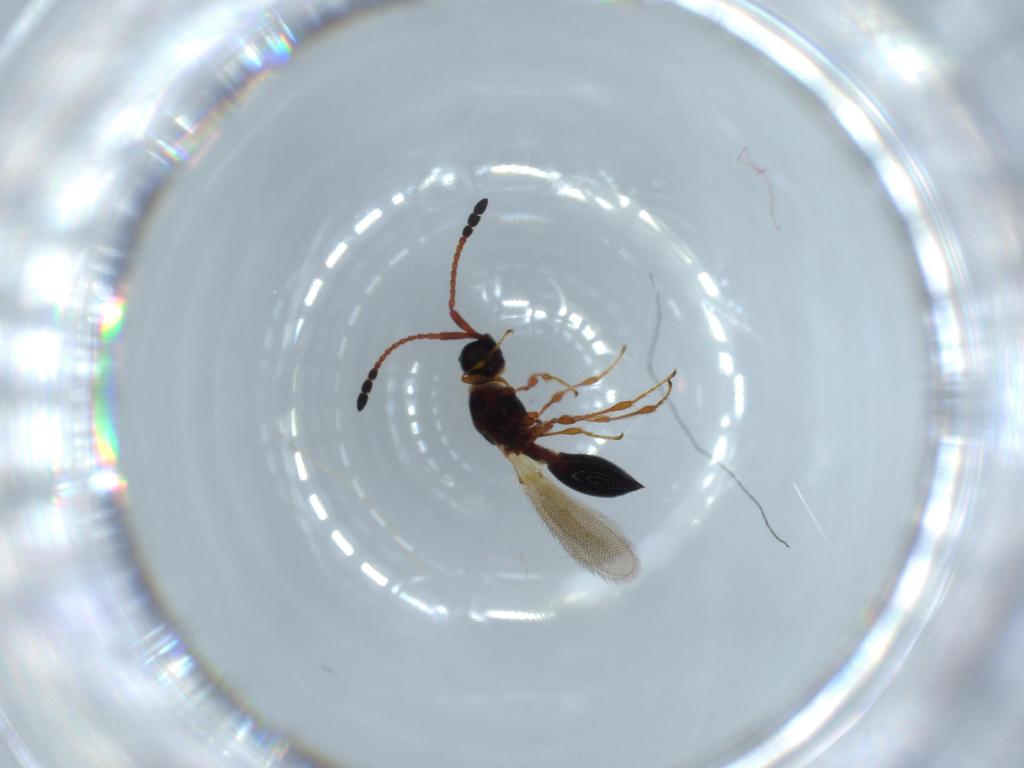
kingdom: Animalia
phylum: Arthropoda
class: Insecta
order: Hymenoptera
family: Diapriidae
